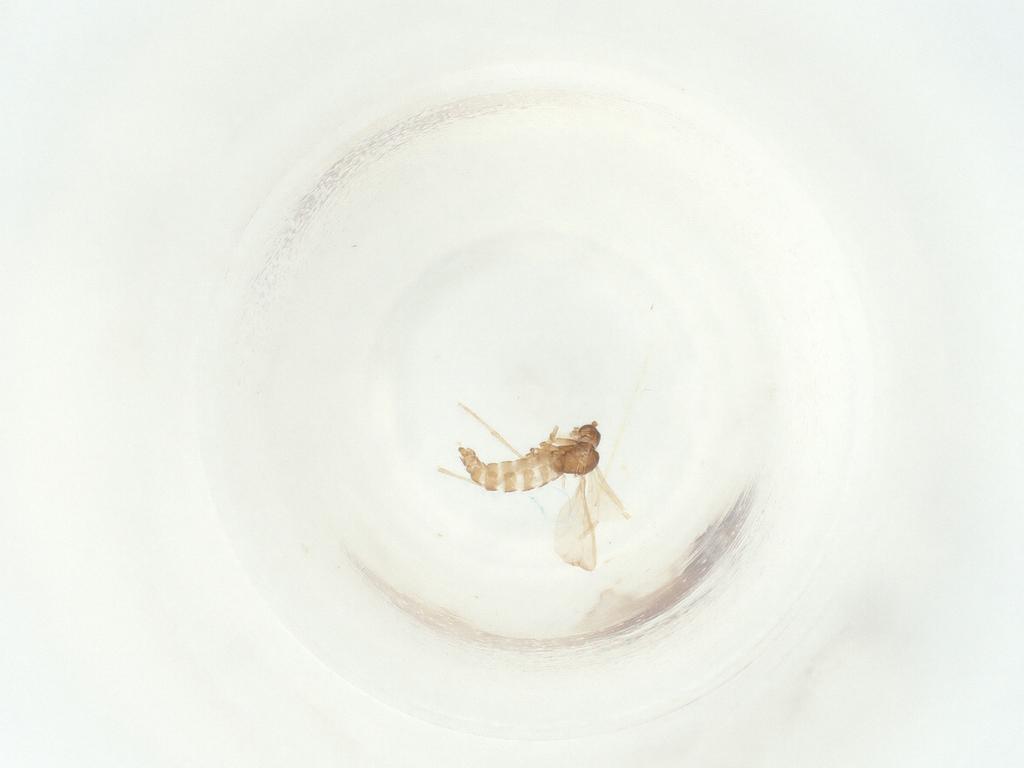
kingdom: Animalia
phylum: Arthropoda
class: Insecta
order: Diptera
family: Sciaridae
